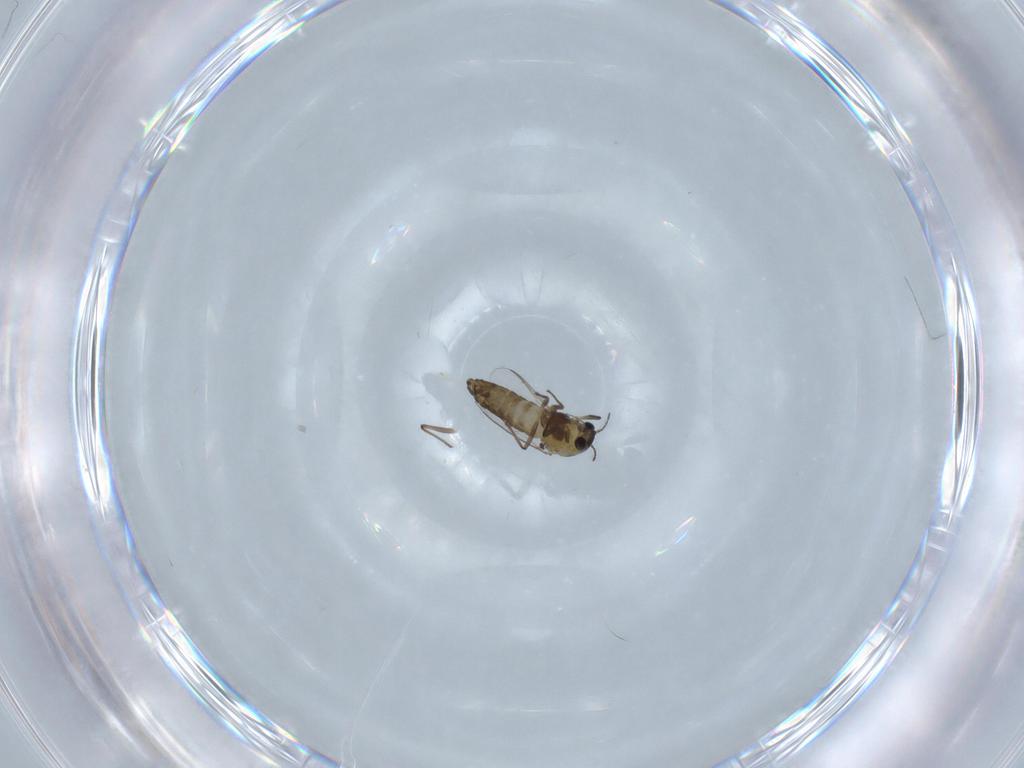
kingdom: Animalia
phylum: Arthropoda
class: Insecta
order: Diptera
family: Chironomidae
